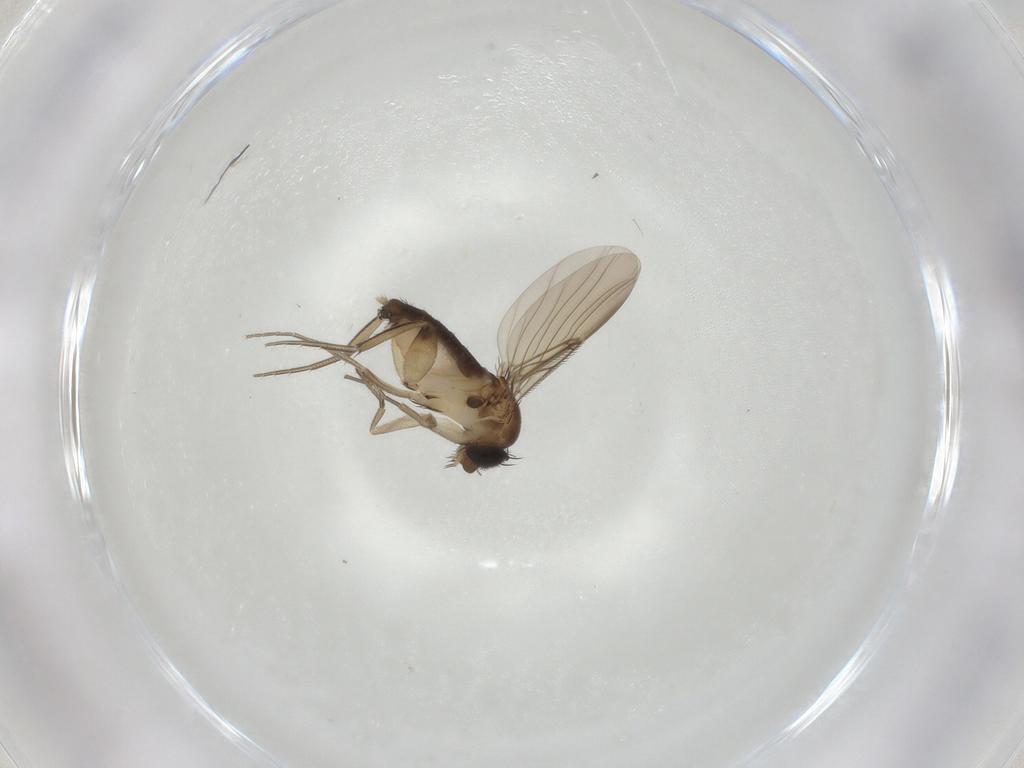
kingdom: Animalia
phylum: Arthropoda
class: Insecta
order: Diptera
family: Phoridae
